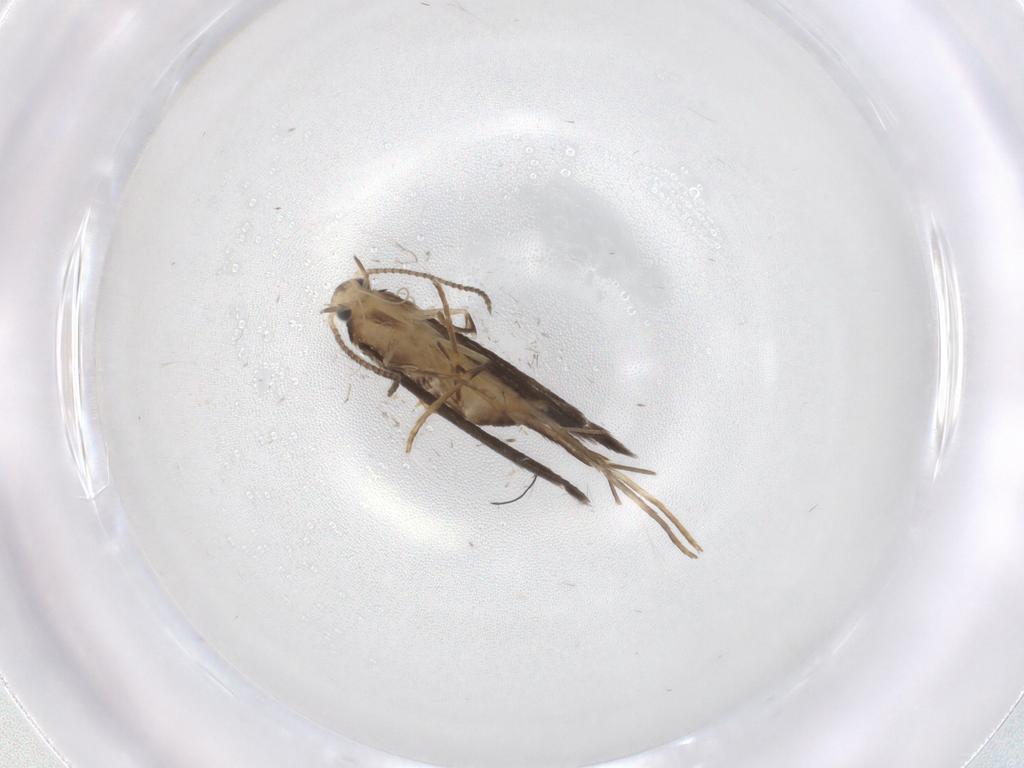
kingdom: Animalia
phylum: Arthropoda
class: Insecta
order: Lepidoptera
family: Schreckensteiniidae
